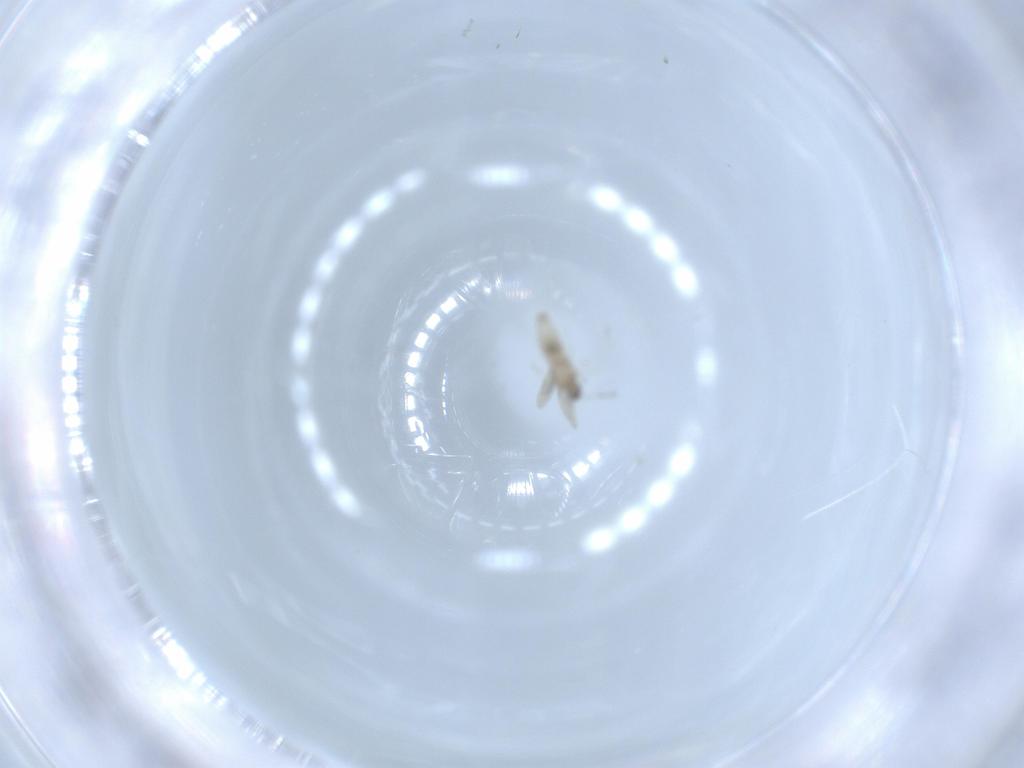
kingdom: Animalia
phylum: Arthropoda
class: Insecta
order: Diptera
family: Cecidomyiidae
